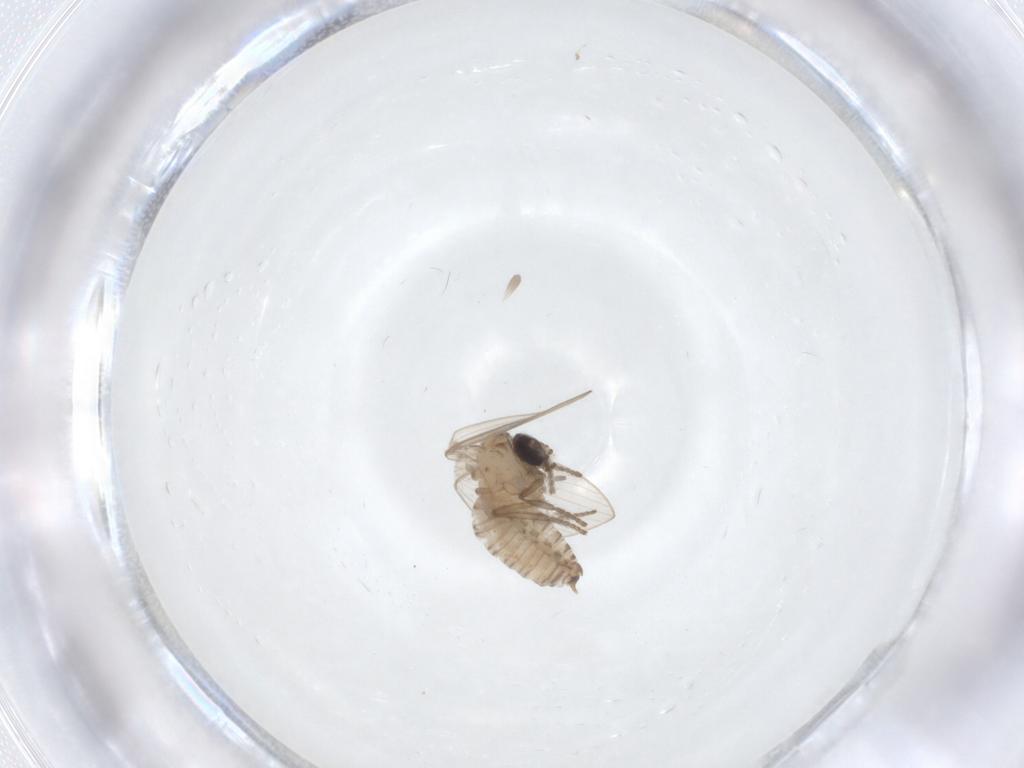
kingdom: Animalia
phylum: Arthropoda
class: Insecta
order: Diptera
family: Psychodidae
